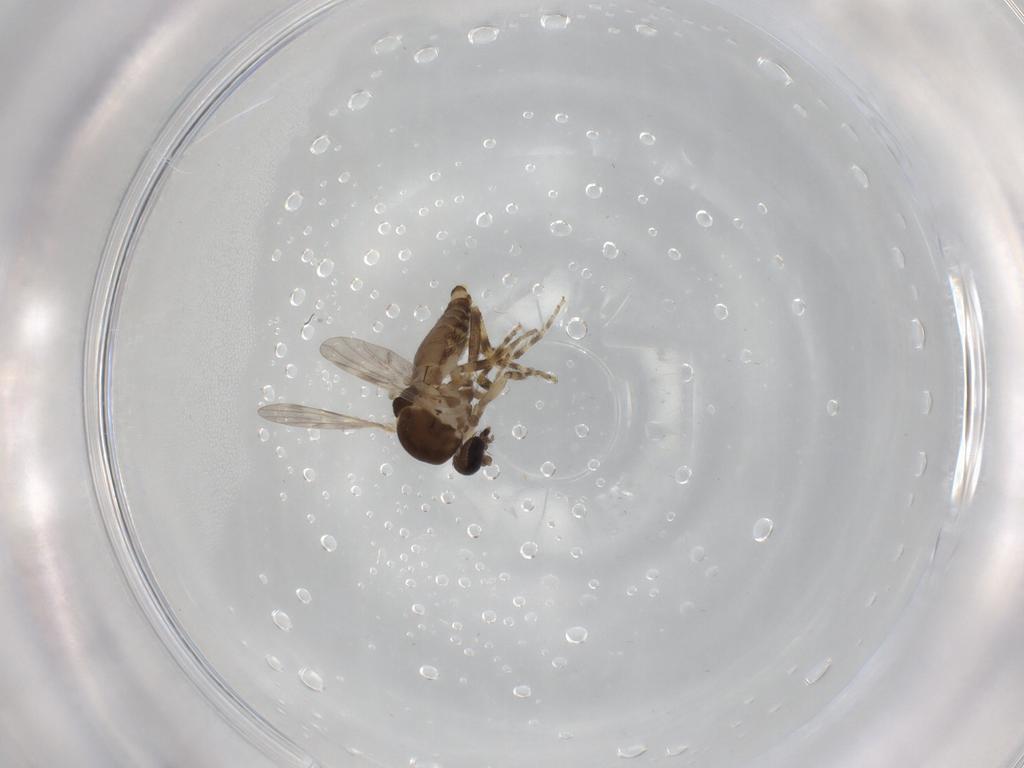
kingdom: Animalia
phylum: Arthropoda
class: Insecta
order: Diptera
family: Ceratopogonidae
